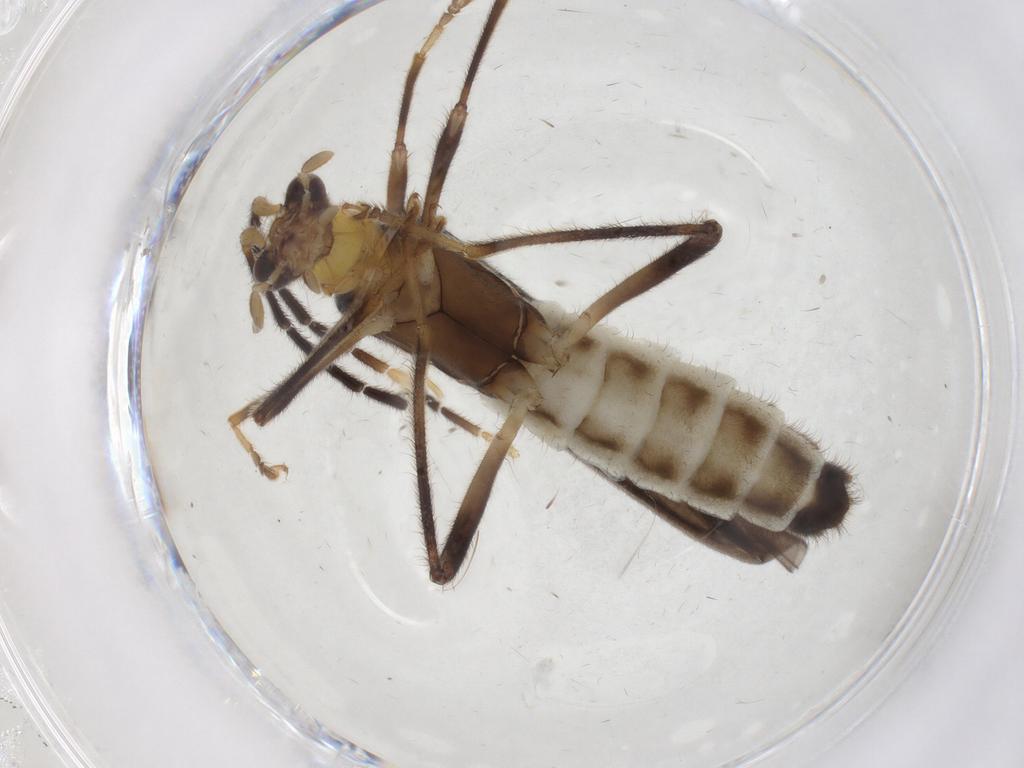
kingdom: Animalia
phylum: Arthropoda
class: Insecta
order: Coleoptera
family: Cantharidae
